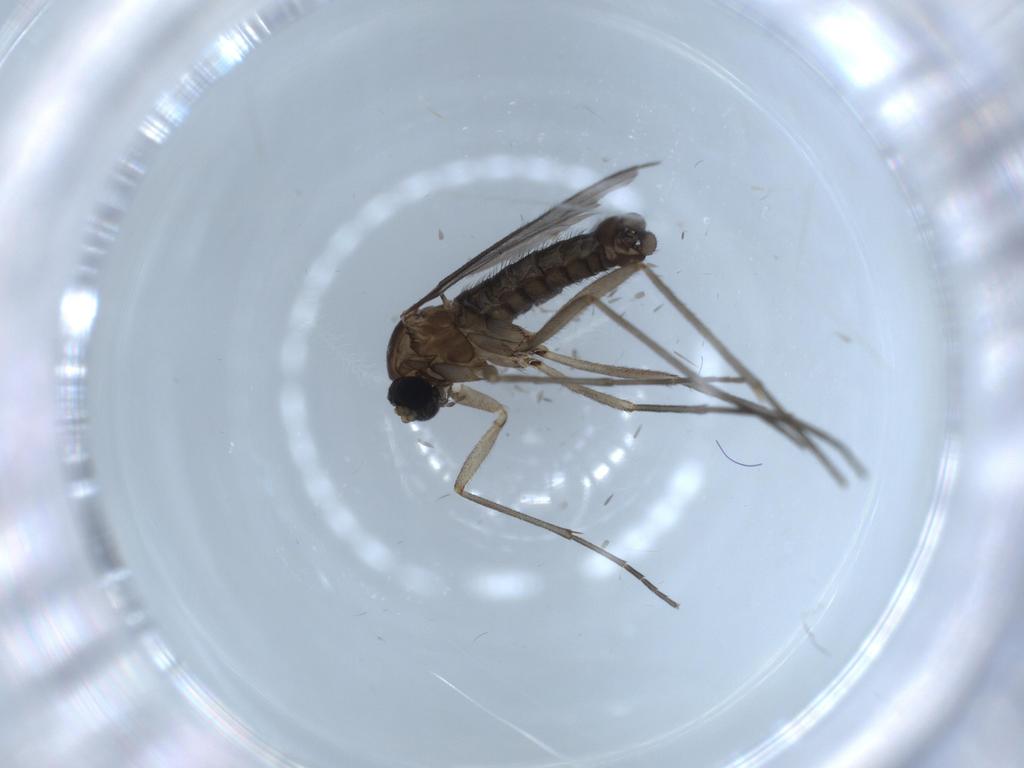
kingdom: Animalia
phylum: Arthropoda
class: Insecta
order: Diptera
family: Sciaridae
